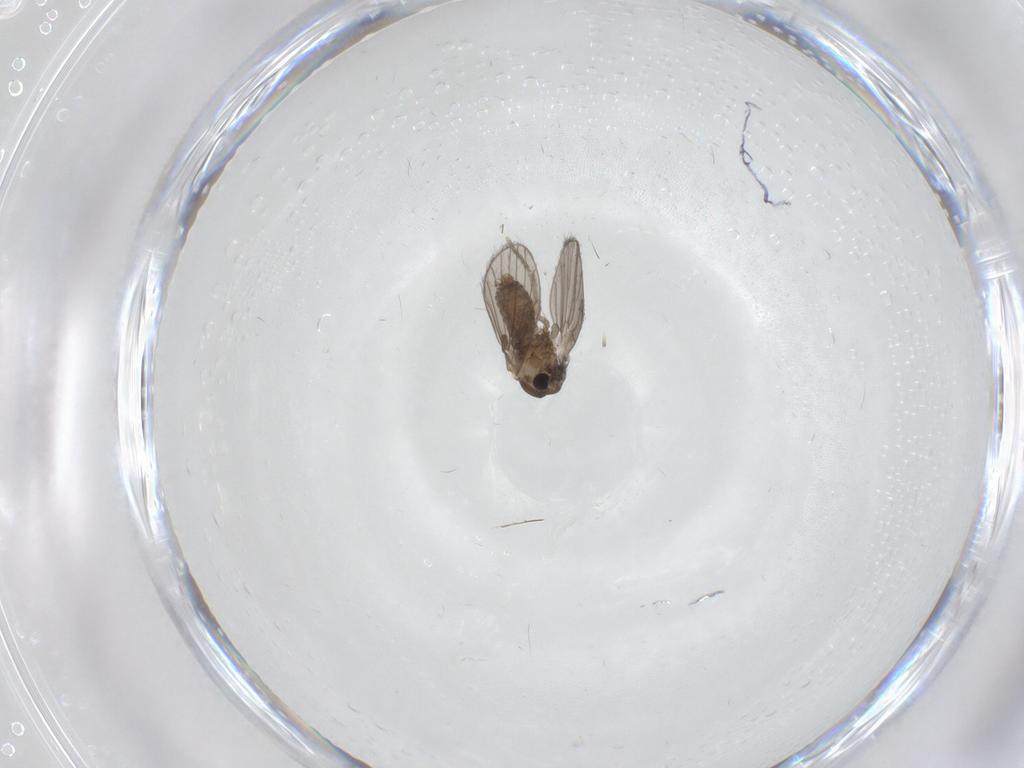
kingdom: Animalia
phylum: Arthropoda
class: Insecta
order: Diptera
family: Psychodidae
